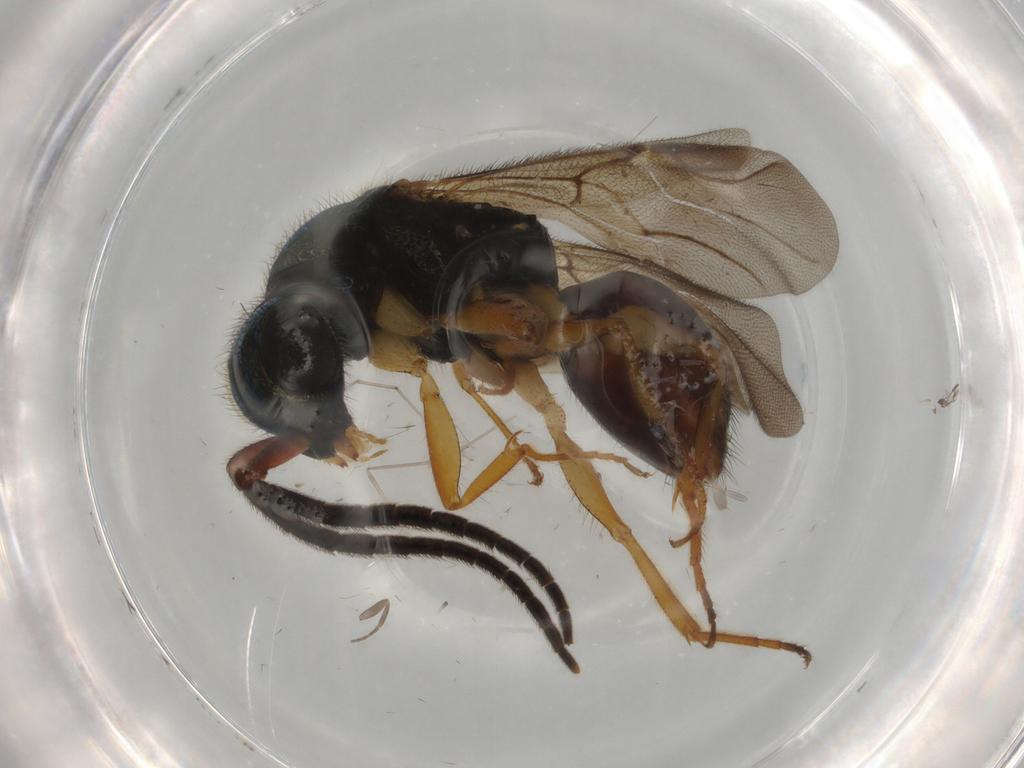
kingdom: Animalia
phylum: Arthropoda
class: Insecta
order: Hymenoptera
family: Chrysididae
